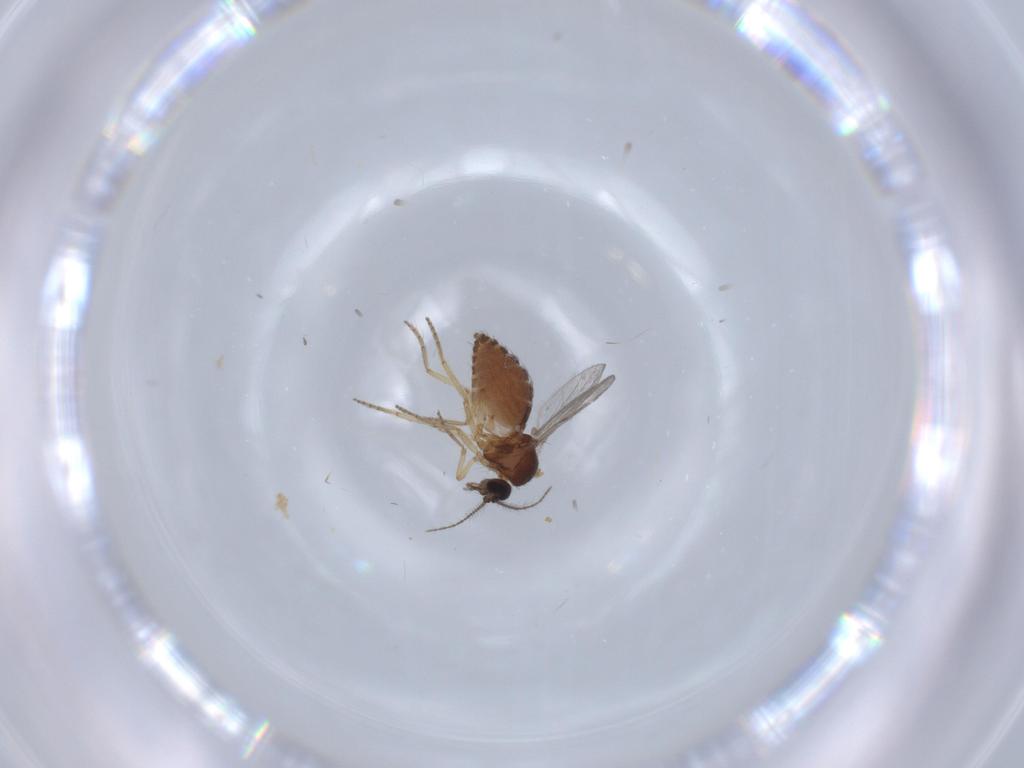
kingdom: Animalia
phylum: Arthropoda
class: Insecta
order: Diptera
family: Ceratopogonidae
